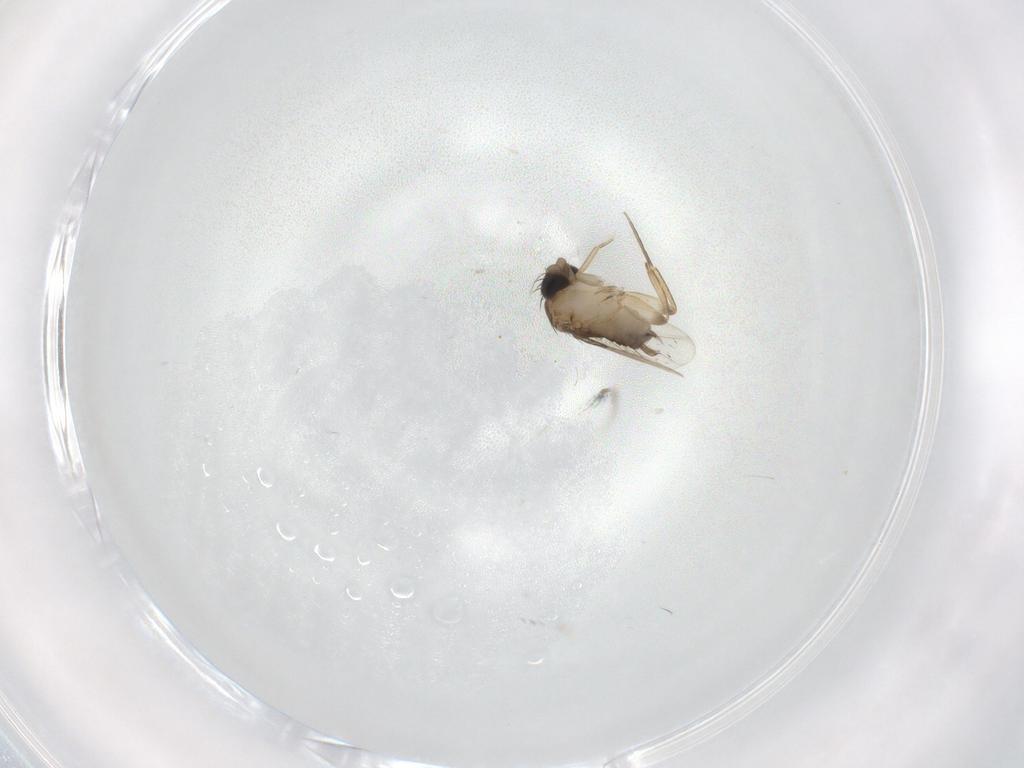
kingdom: Animalia
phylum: Arthropoda
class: Insecta
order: Diptera
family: Phoridae
